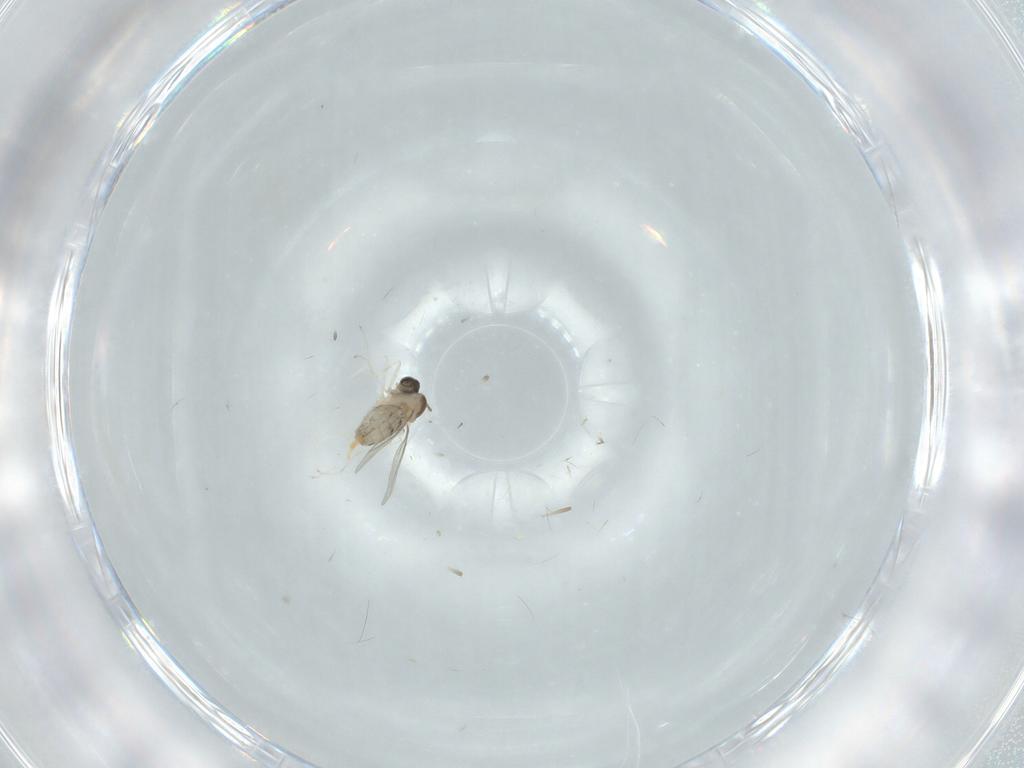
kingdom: Animalia
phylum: Arthropoda
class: Insecta
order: Diptera
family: Cecidomyiidae
